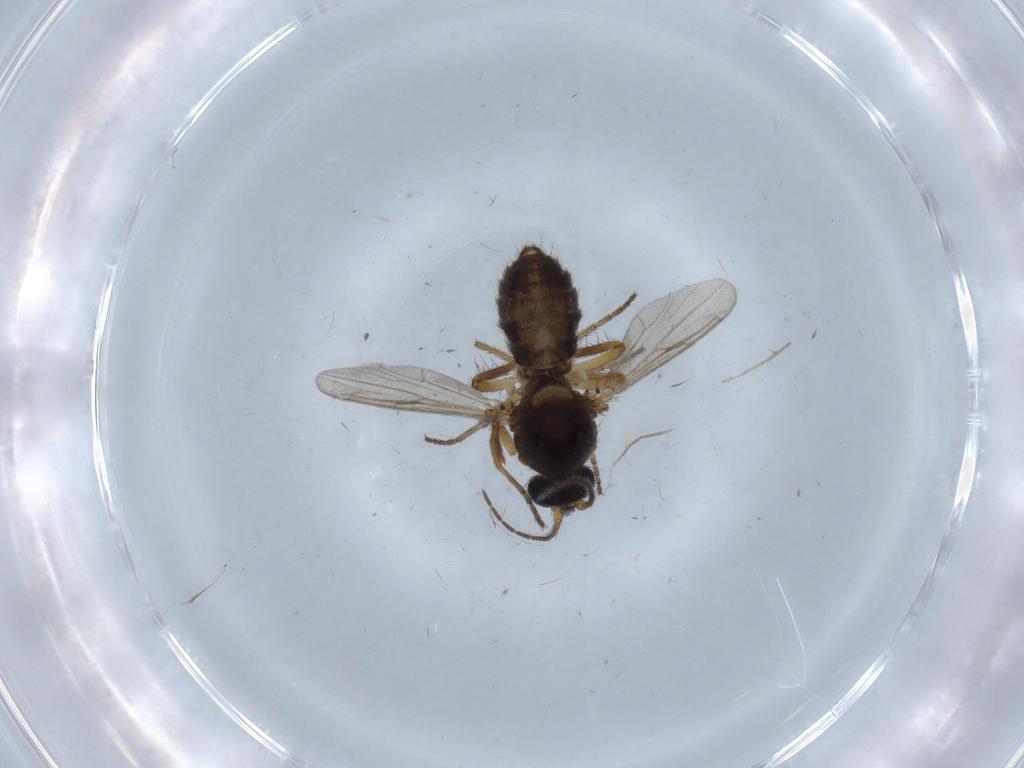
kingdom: Animalia
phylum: Arthropoda
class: Insecta
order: Diptera
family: Ceratopogonidae
